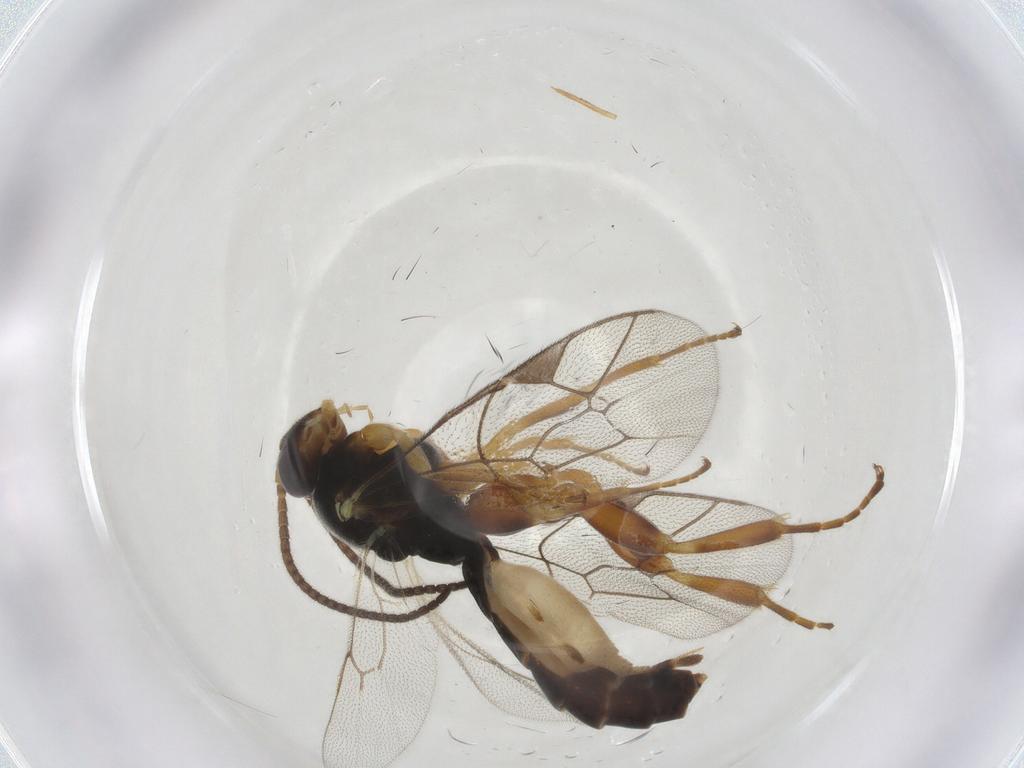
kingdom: Animalia
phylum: Arthropoda
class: Insecta
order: Hymenoptera
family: Ichneumonidae
